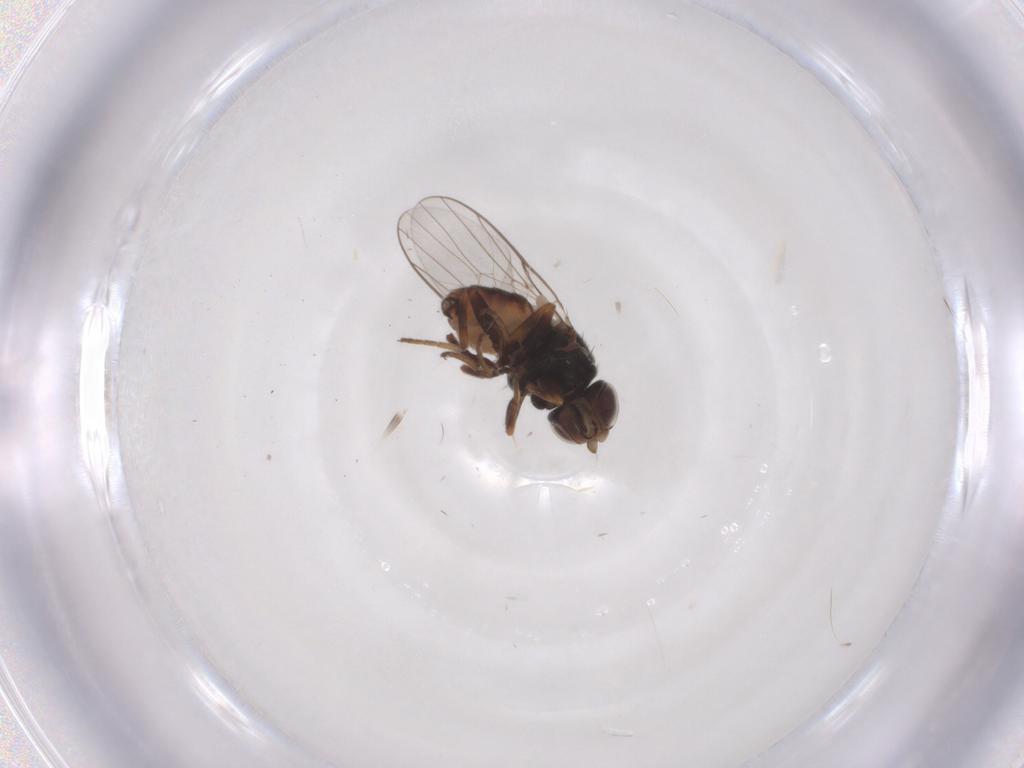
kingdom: Animalia
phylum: Arthropoda
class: Insecta
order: Diptera
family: Chloropidae
